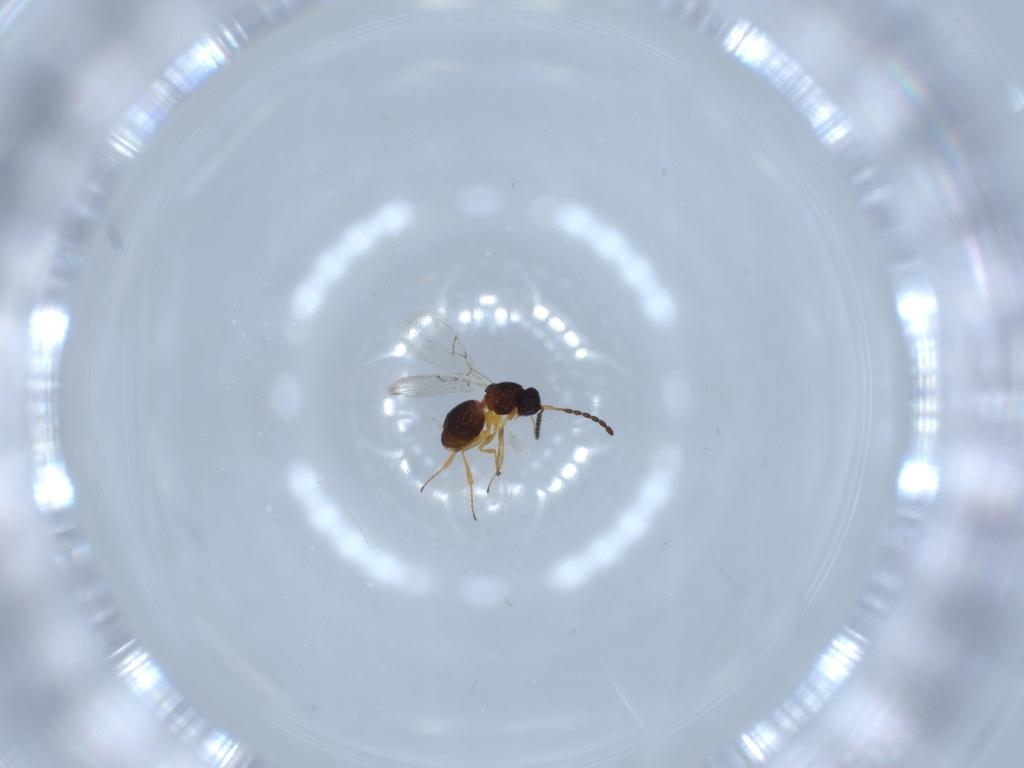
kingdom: Animalia
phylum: Arthropoda
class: Insecta
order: Hymenoptera
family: Figitidae
